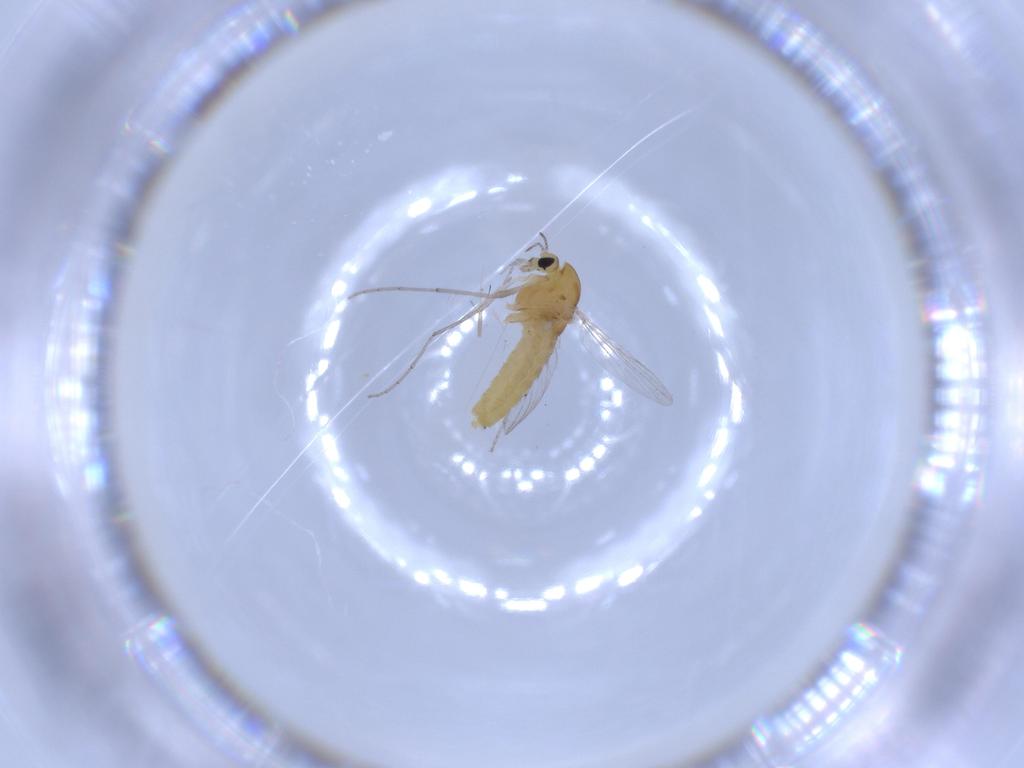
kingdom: Animalia
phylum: Arthropoda
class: Insecta
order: Diptera
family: Chironomidae
